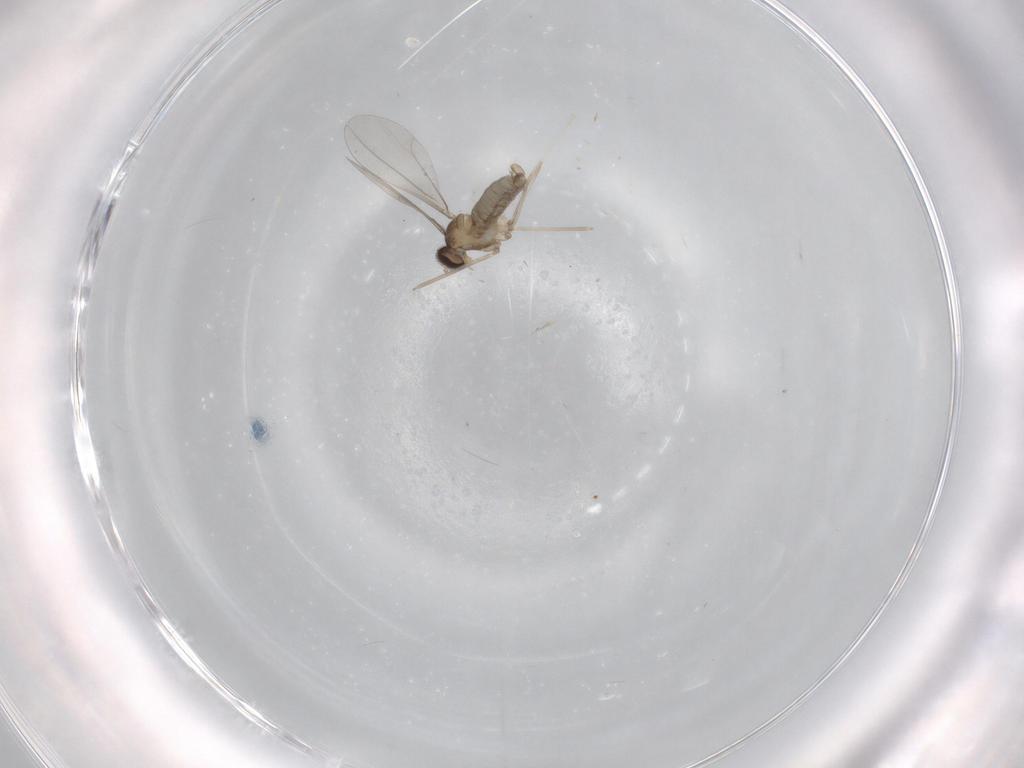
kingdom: Animalia
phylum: Arthropoda
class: Insecta
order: Diptera
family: Cecidomyiidae
